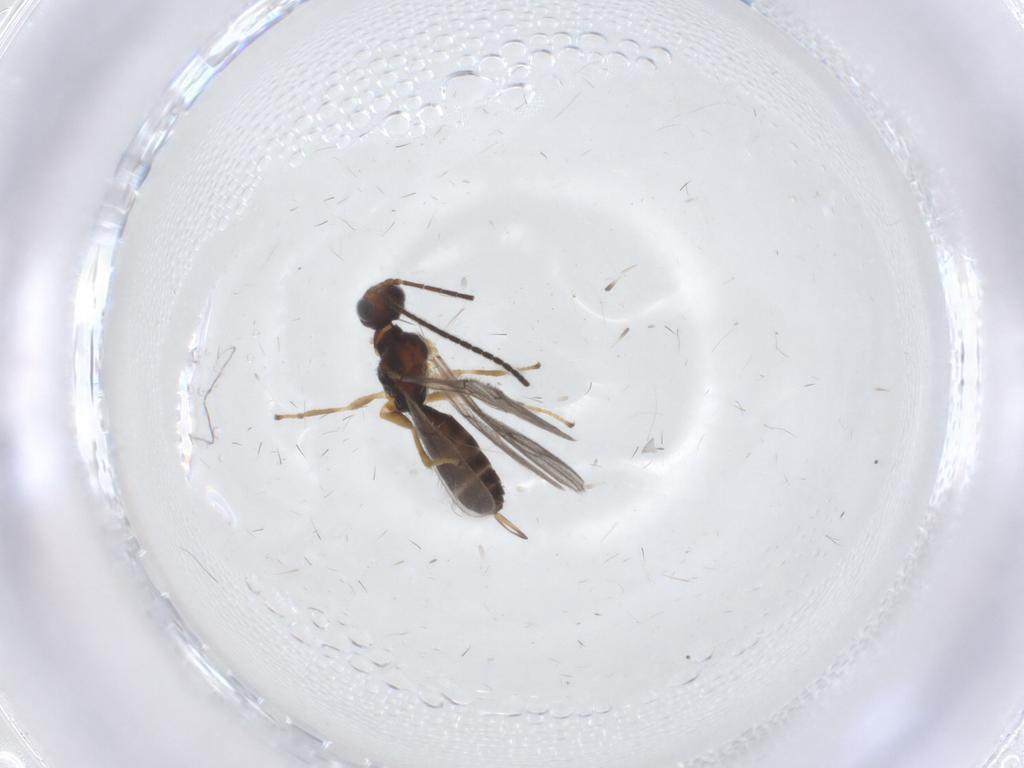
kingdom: Animalia
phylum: Arthropoda
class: Insecta
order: Hymenoptera
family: Braconidae
